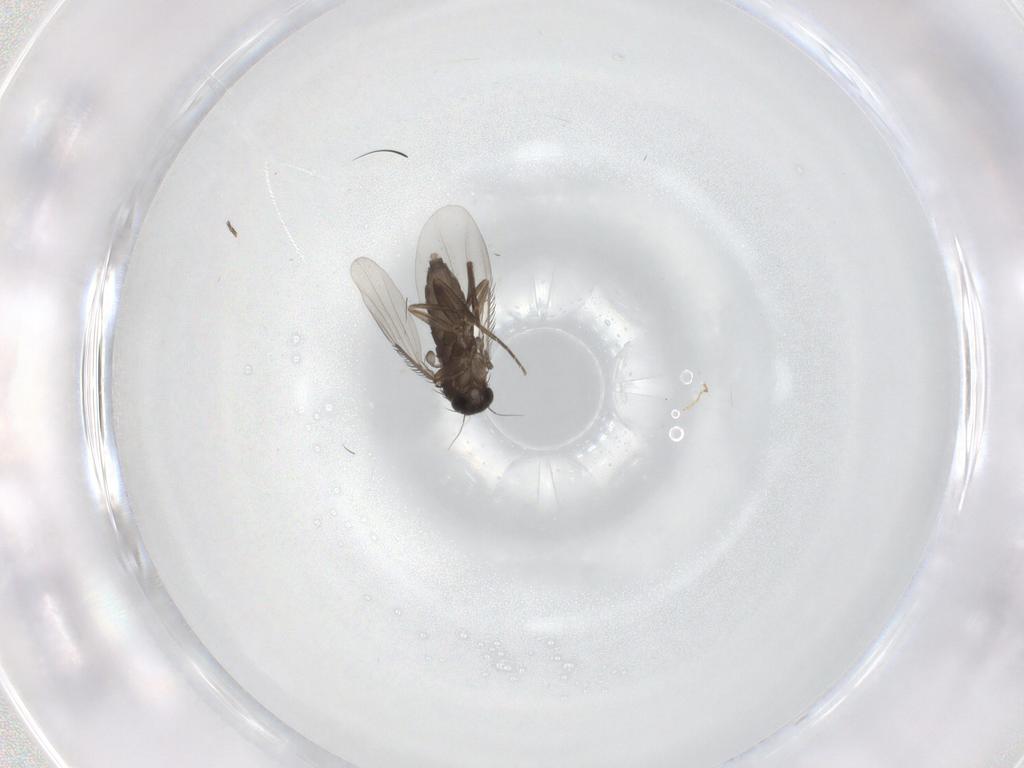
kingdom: Animalia
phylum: Arthropoda
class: Insecta
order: Diptera
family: Phoridae
